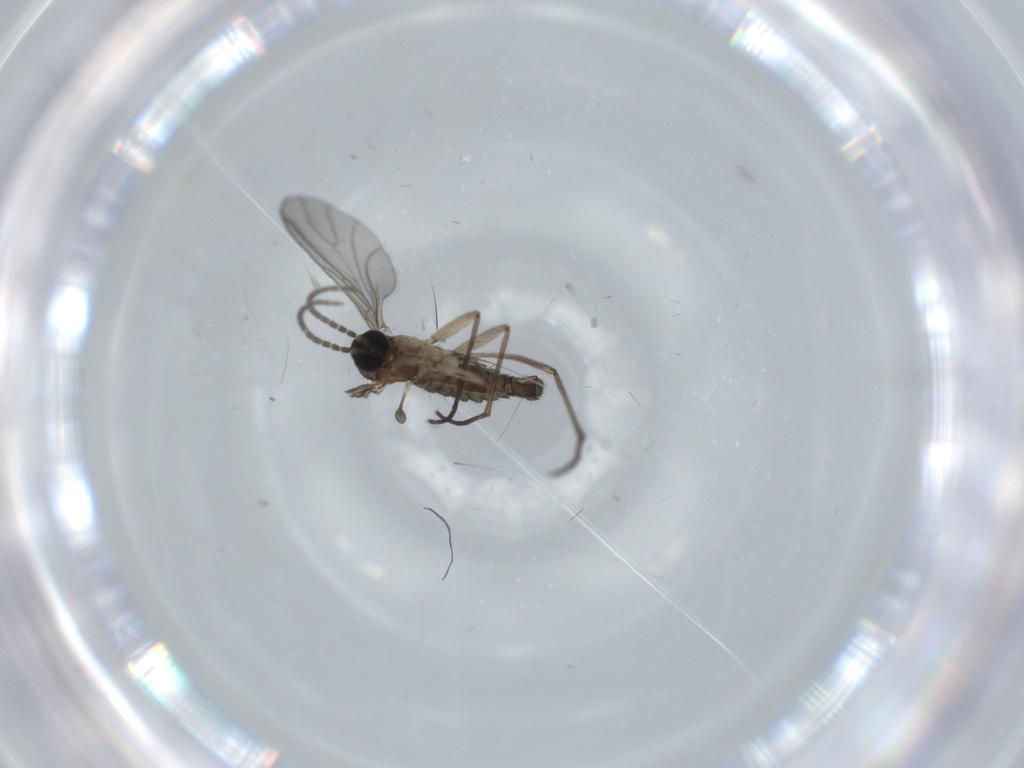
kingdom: Animalia
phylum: Arthropoda
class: Insecta
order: Diptera
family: Sciaridae
